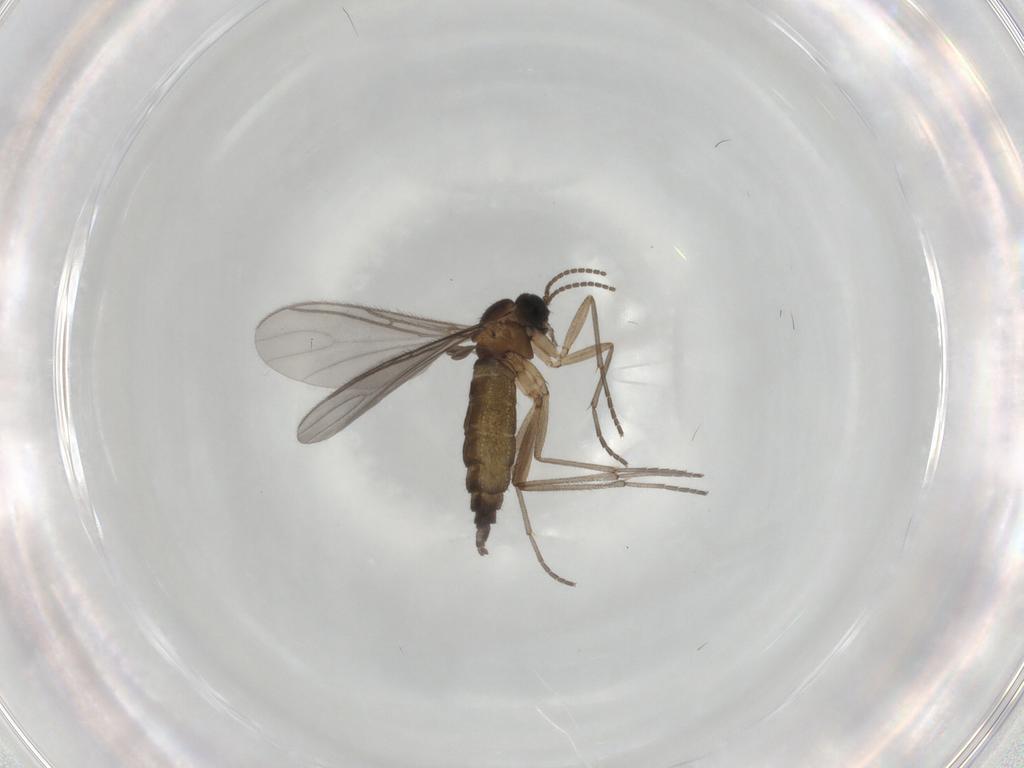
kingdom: Animalia
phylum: Arthropoda
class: Insecta
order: Diptera
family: Sciaridae
